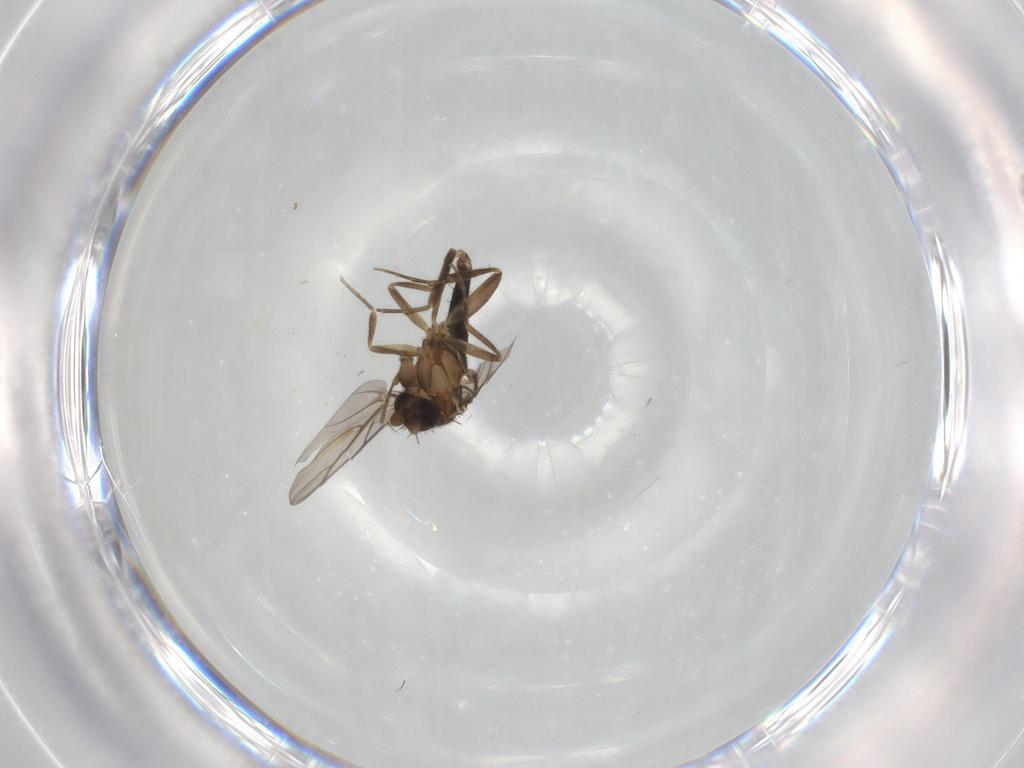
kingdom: Animalia
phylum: Arthropoda
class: Insecta
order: Diptera
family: Phoridae
